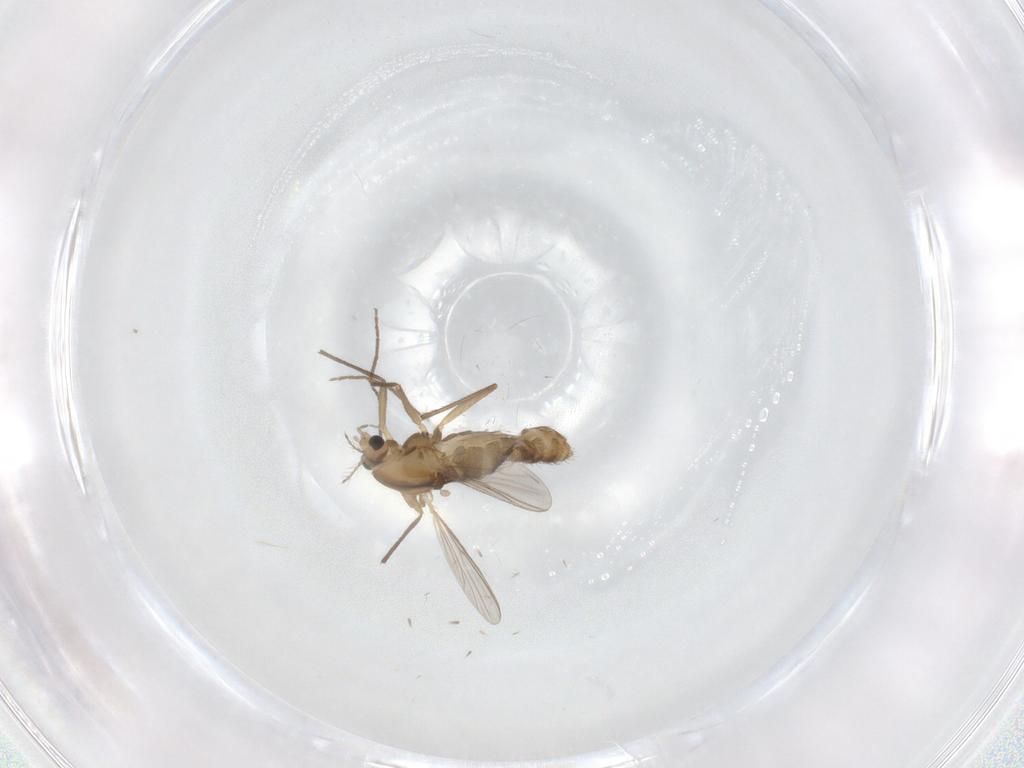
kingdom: Animalia
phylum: Arthropoda
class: Insecta
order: Diptera
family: Chironomidae
